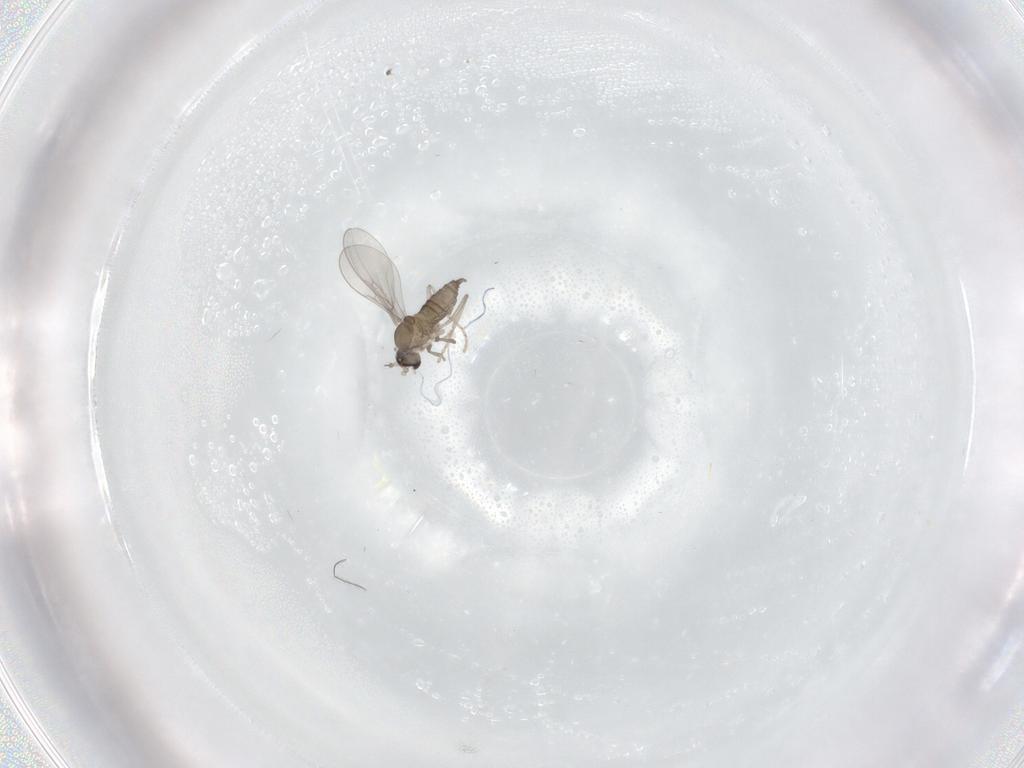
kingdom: Animalia
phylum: Arthropoda
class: Insecta
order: Diptera
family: Cecidomyiidae
